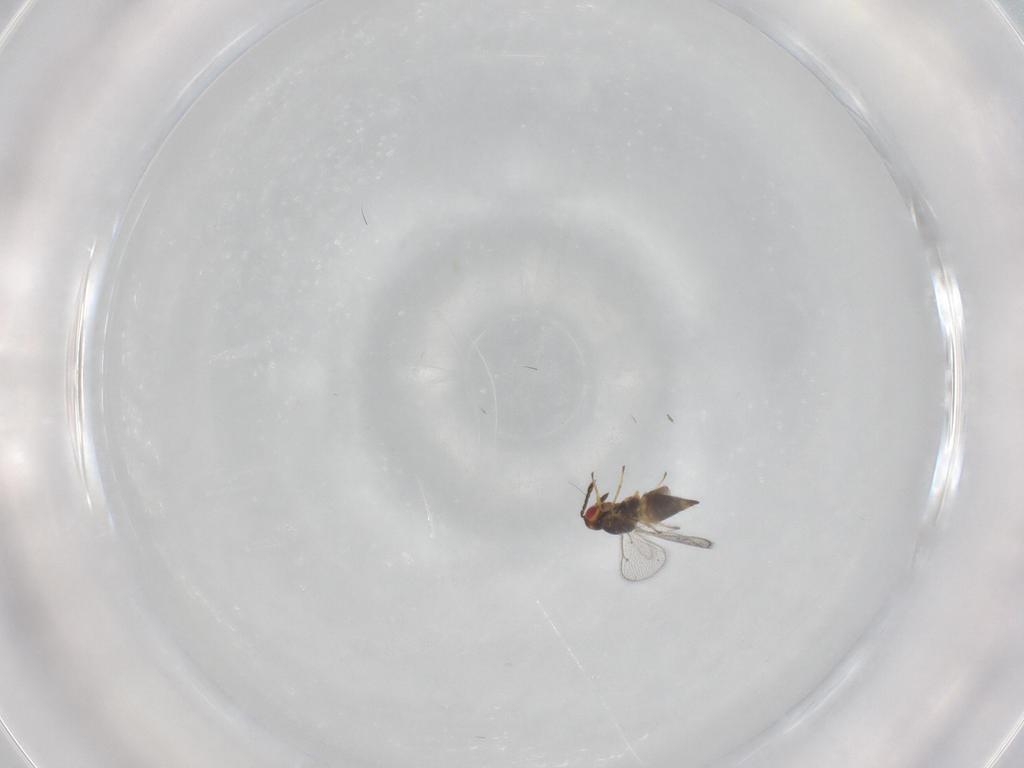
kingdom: Animalia
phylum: Arthropoda
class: Insecta
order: Hymenoptera
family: Eulophidae
